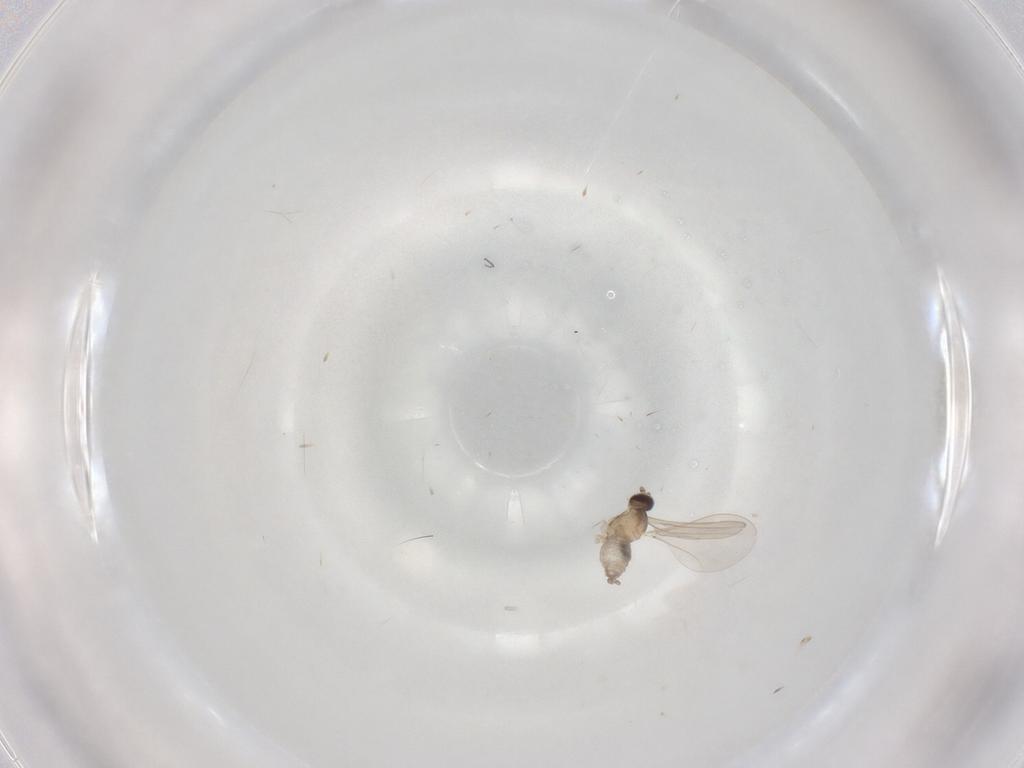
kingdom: Animalia
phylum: Arthropoda
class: Insecta
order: Diptera
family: Cecidomyiidae
